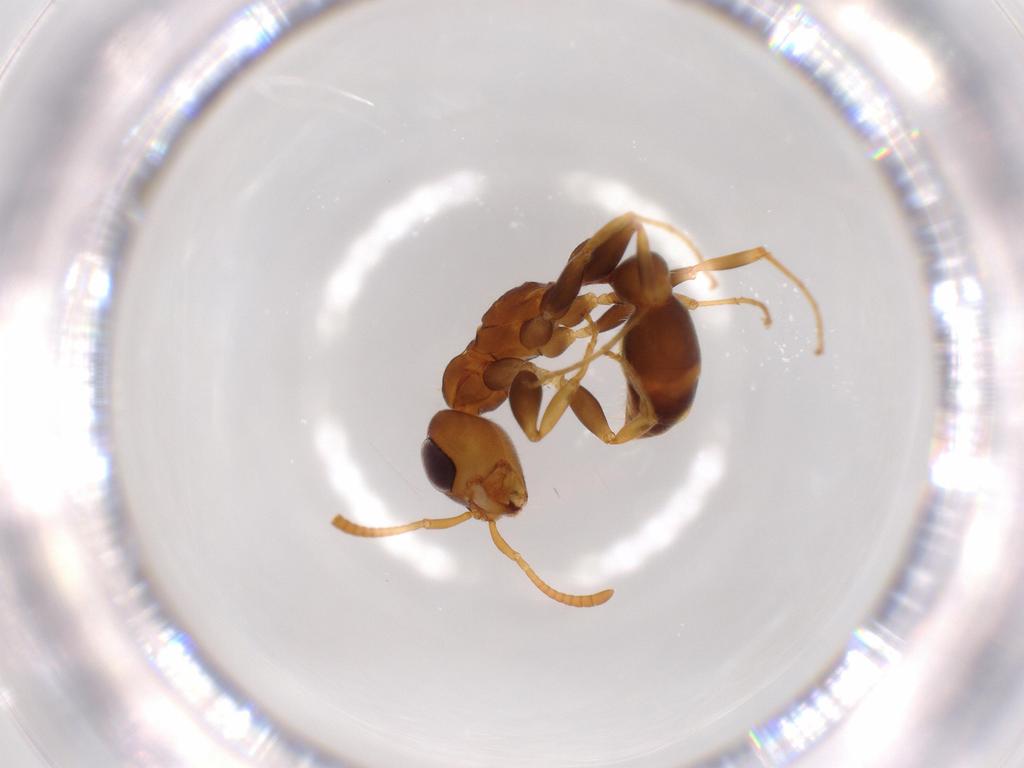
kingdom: Animalia
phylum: Arthropoda
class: Insecta
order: Hymenoptera
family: Formicidae
